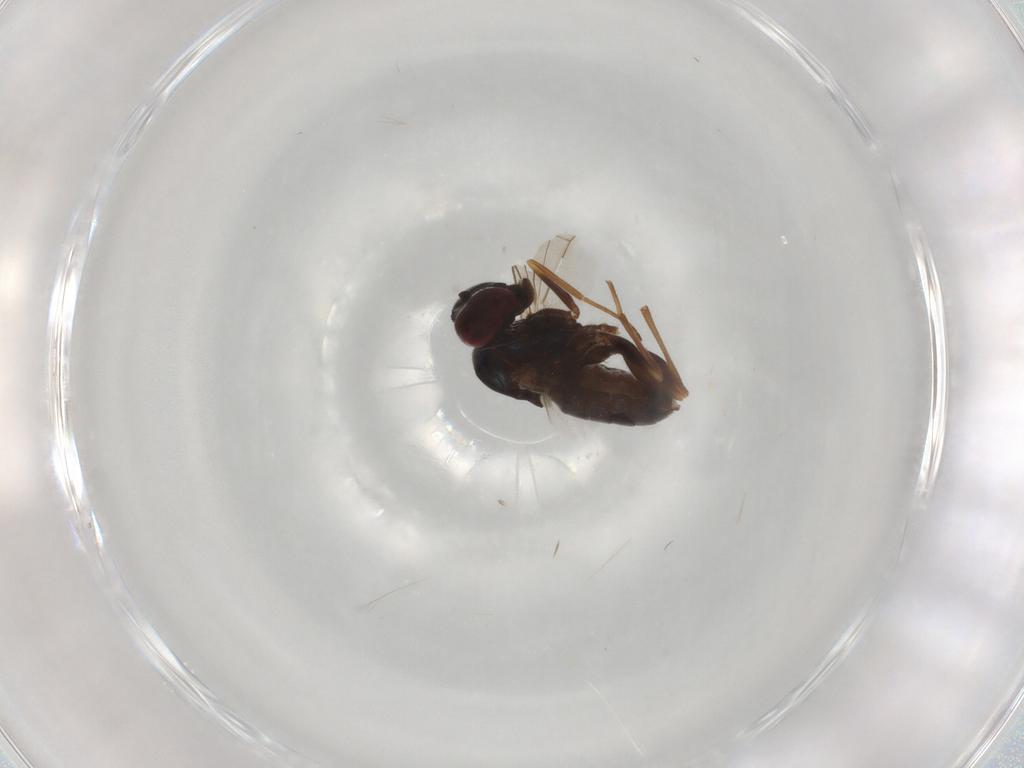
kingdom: Animalia
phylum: Arthropoda
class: Insecta
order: Diptera
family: Dolichopodidae
